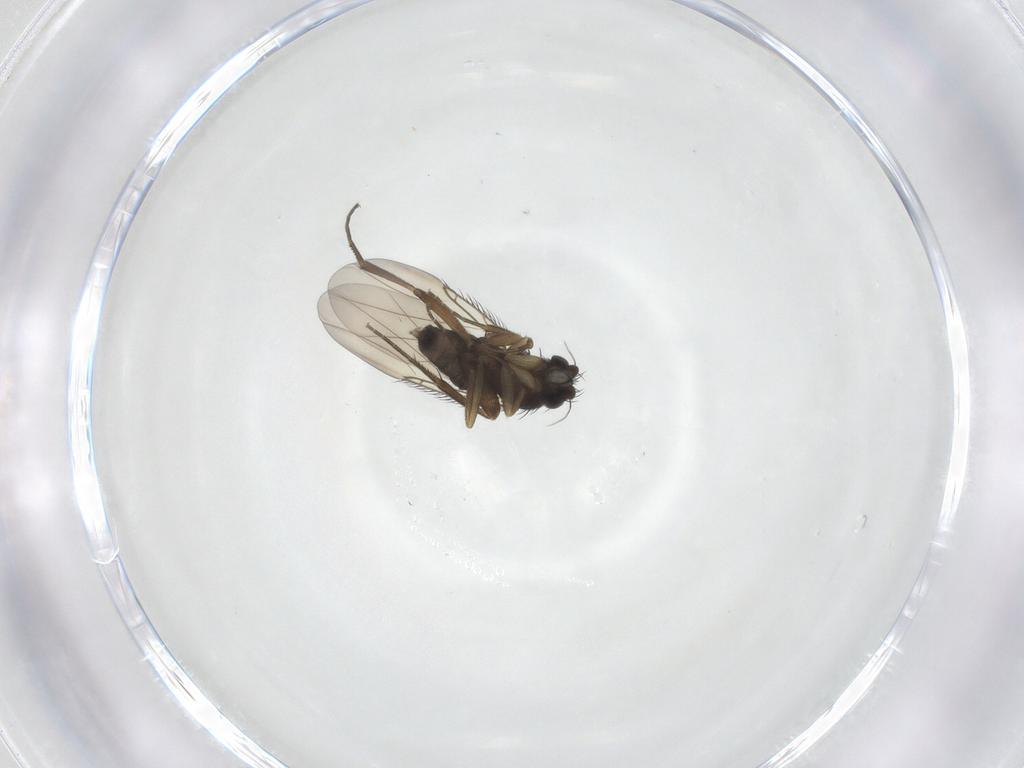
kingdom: Animalia
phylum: Arthropoda
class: Insecta
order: Diptera
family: Phoridae
